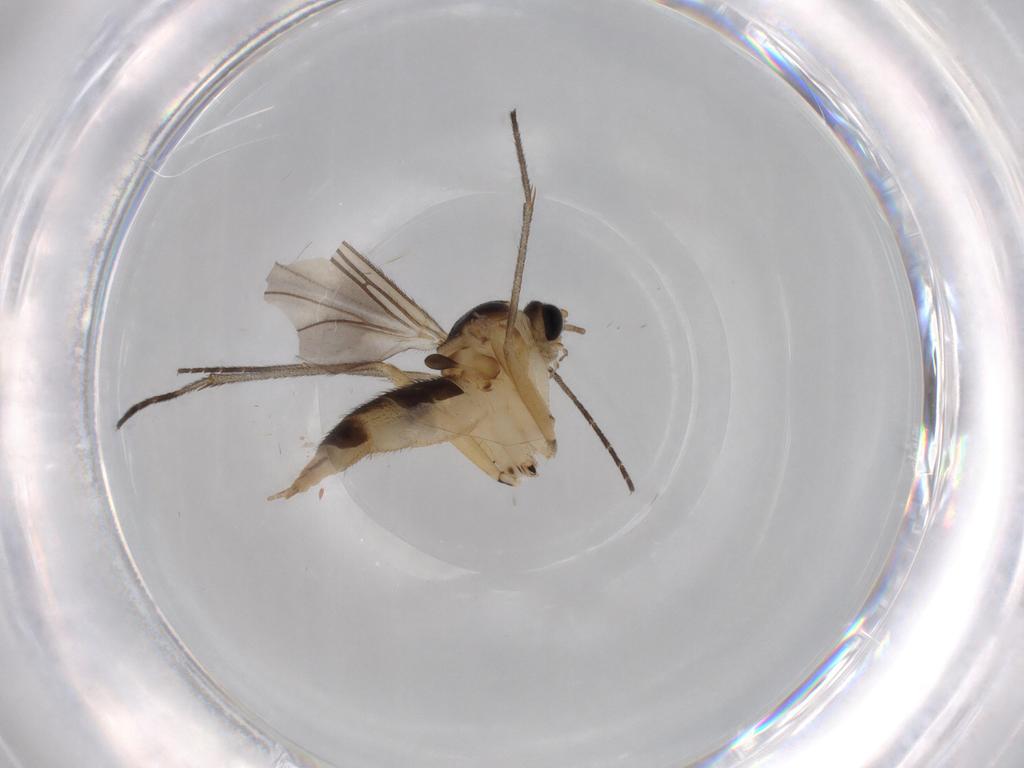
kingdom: Animalia
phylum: Arthropoda
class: Insecta
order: Diptera
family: Sciaridae
